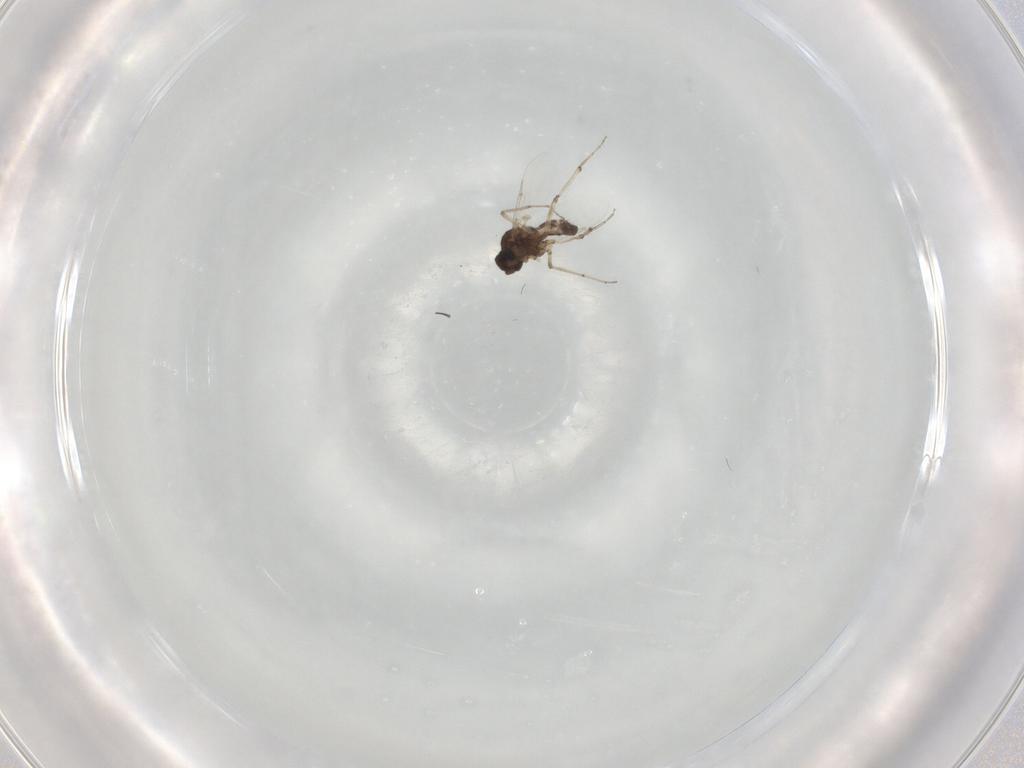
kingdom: Animalia
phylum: Arthropoda
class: Insecta
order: Diptera
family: Ceratopogonidae
